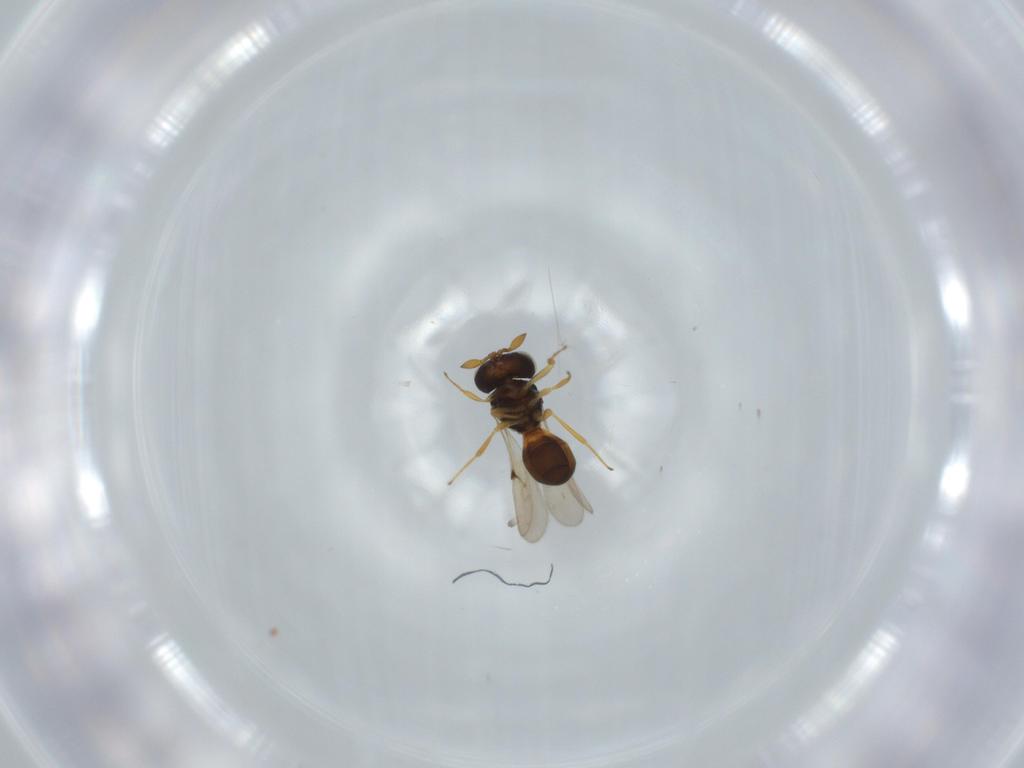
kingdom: Animalia
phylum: Arthropoda
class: Insecta
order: Hymenoptera
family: Scelionidae
